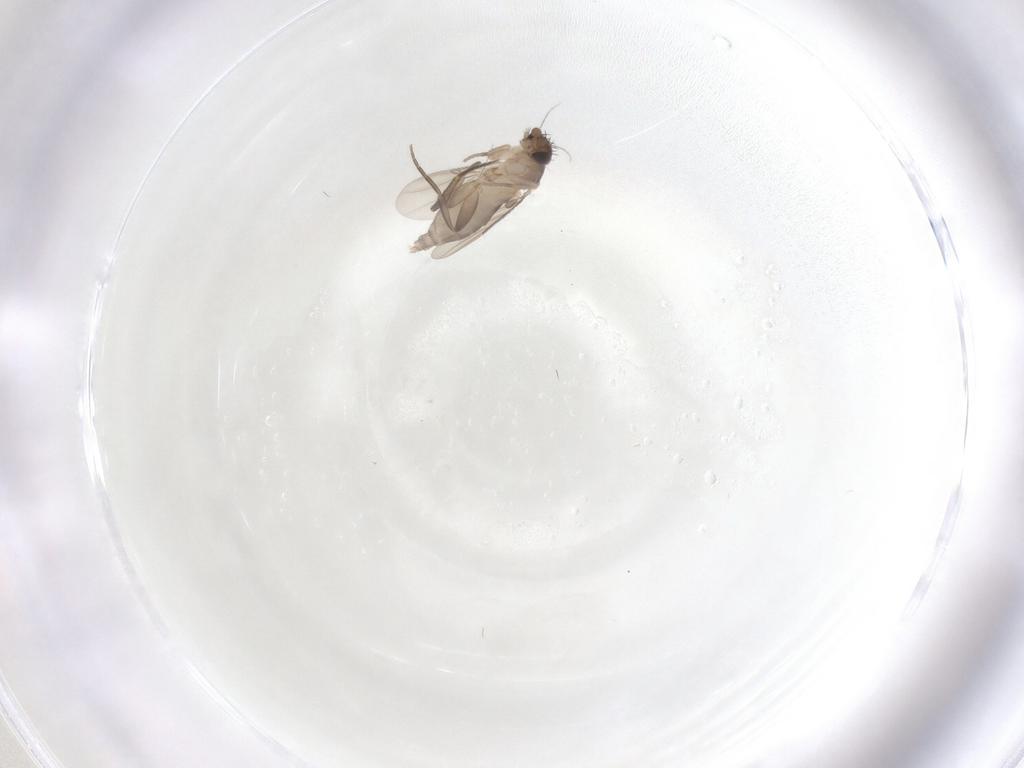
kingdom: Animalia
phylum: Arthropoda
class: Insecta
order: Diptera
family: Phoridae
